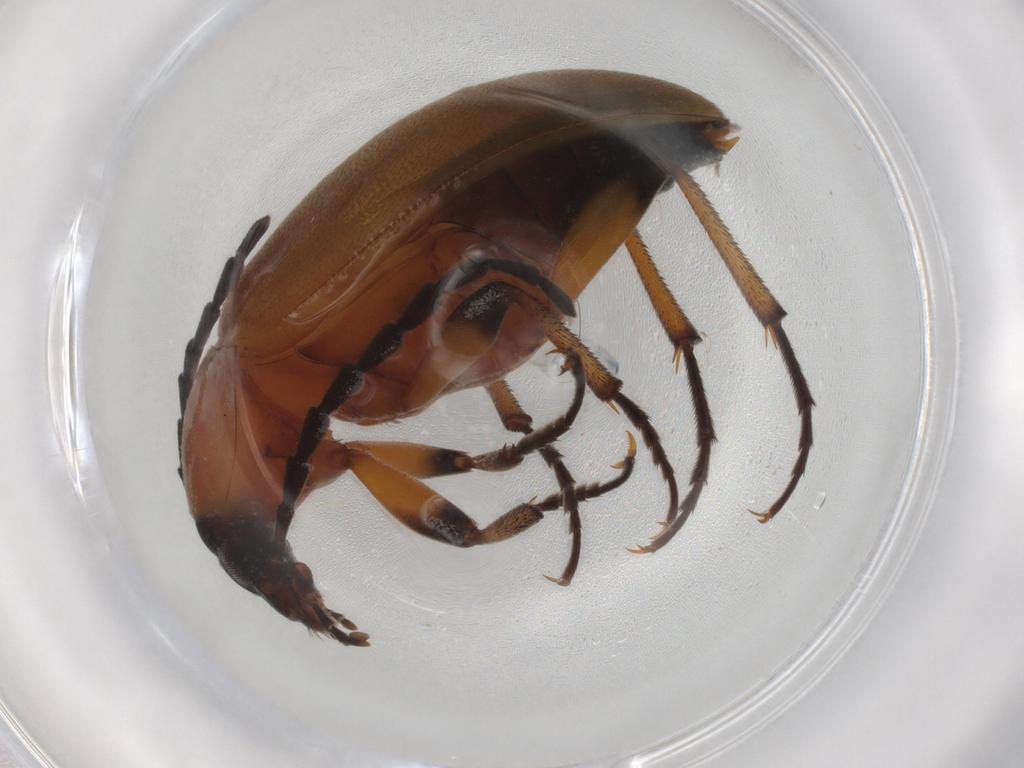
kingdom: Animalia
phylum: Arthropoda
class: Insecta
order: Coleoptera
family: Tenebrionidae
